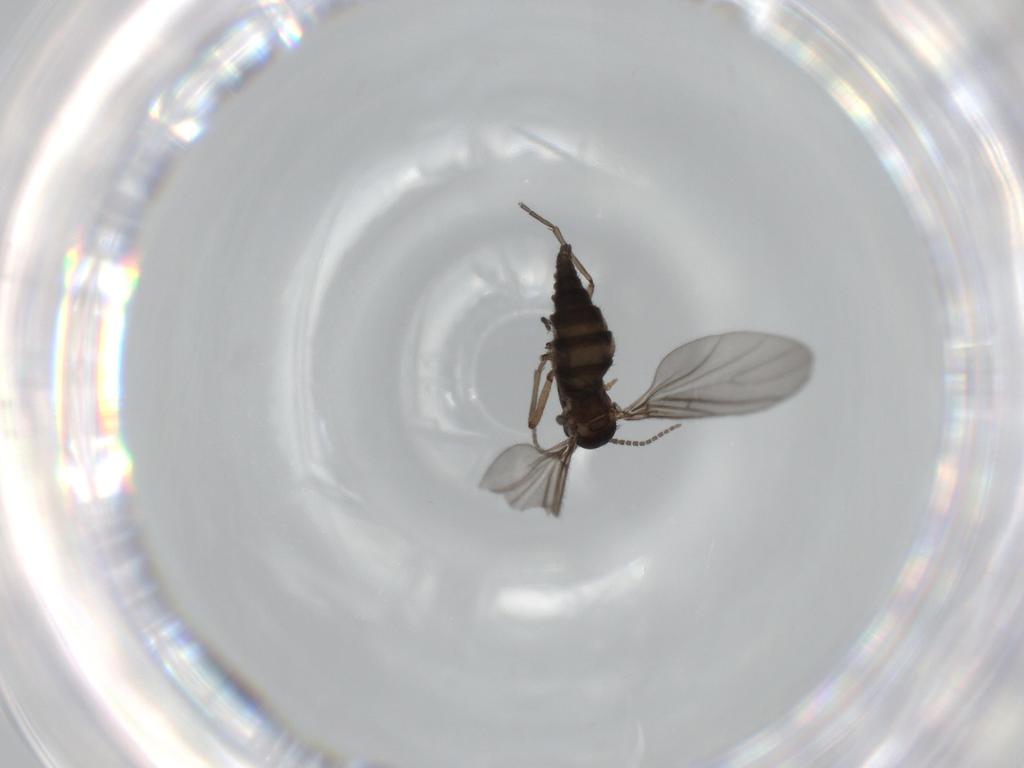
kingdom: Animalia
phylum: Arthropoda
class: Insecta
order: Diptera
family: Sciaridae
